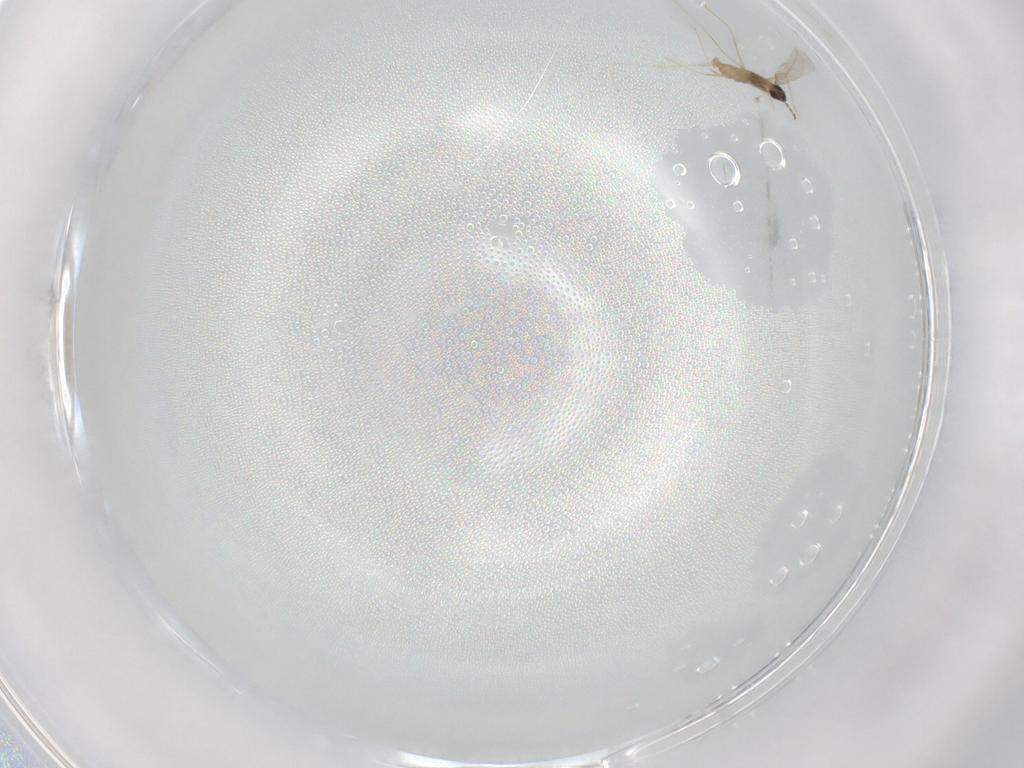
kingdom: Animalia
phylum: Arthropoda
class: Insecta
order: Diptera
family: Cecidomyiidae
